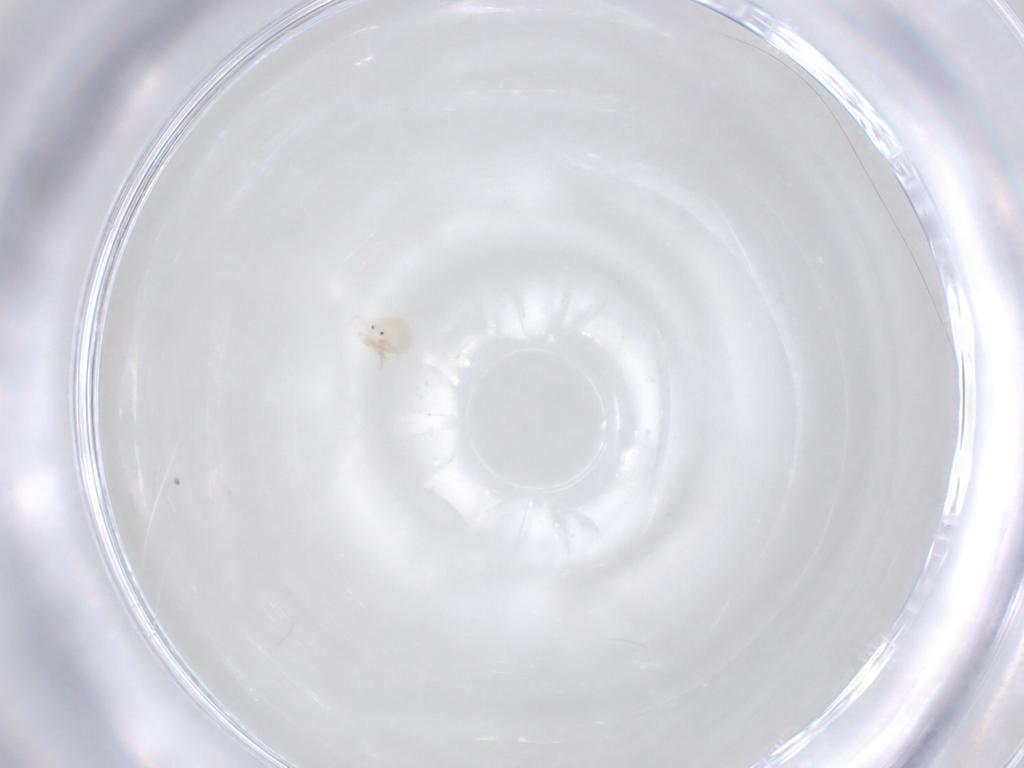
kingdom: Animalia
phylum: Arthropoda
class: Arachnida
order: Trombidiformes
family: Lebertiidae
